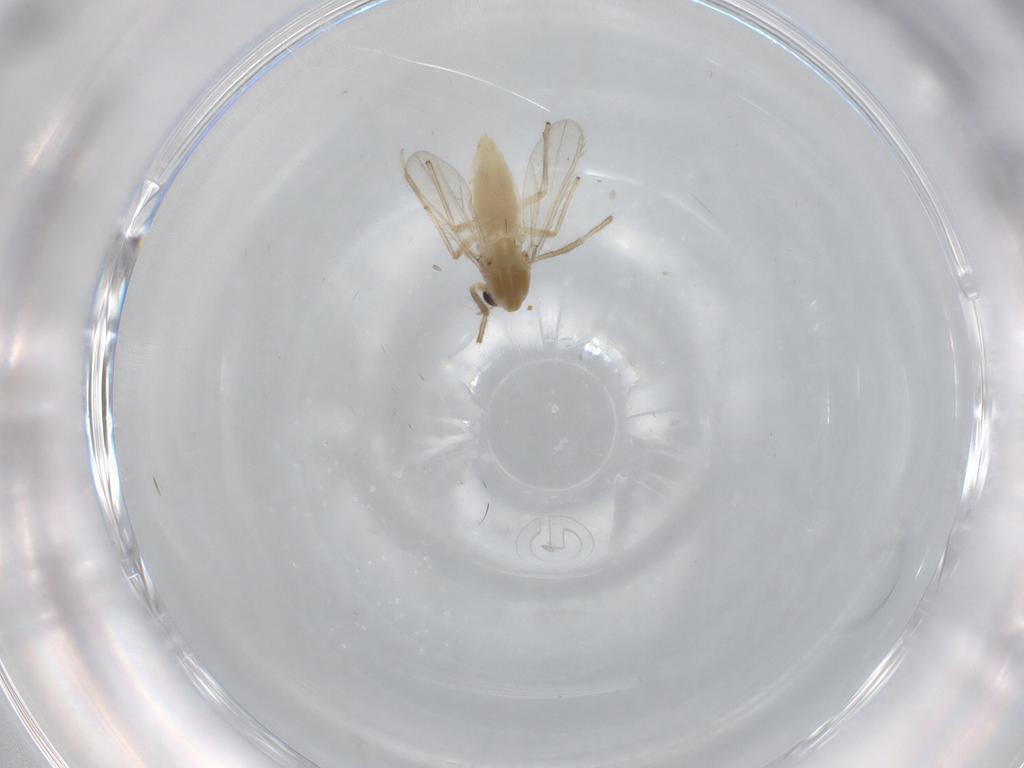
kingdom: Animalia
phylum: Arthropoda
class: Insecta
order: Diptera
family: Chironomidae
